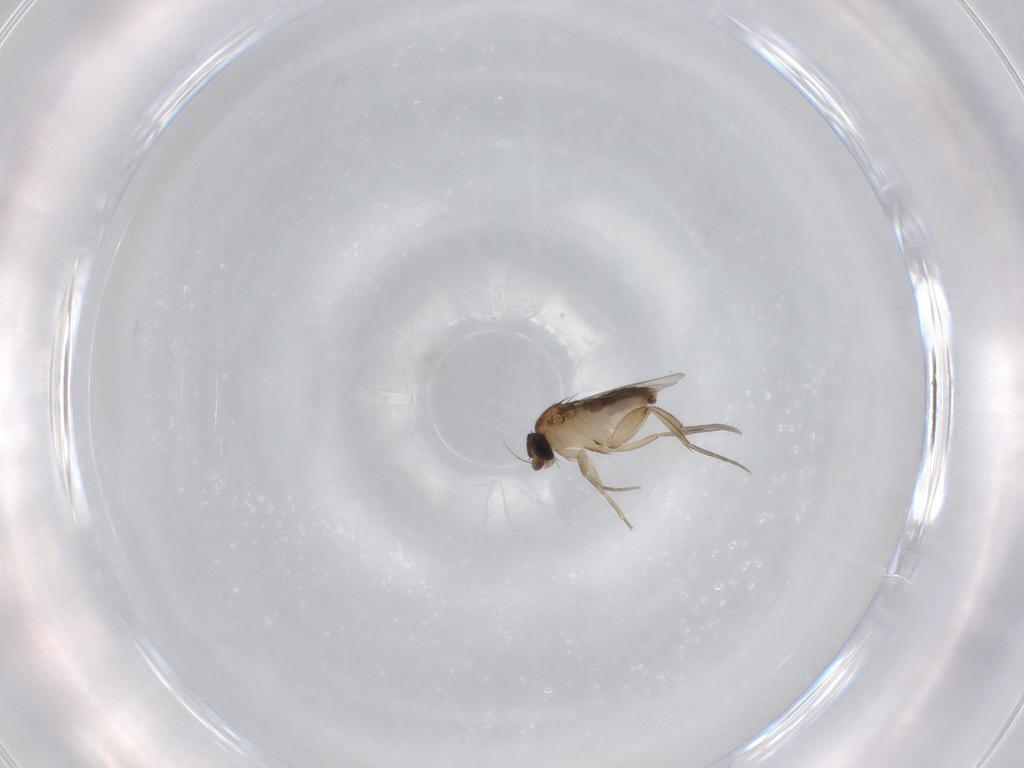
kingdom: Animalia
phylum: Arthropoda
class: Insecta
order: Diptera
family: Phoridae
